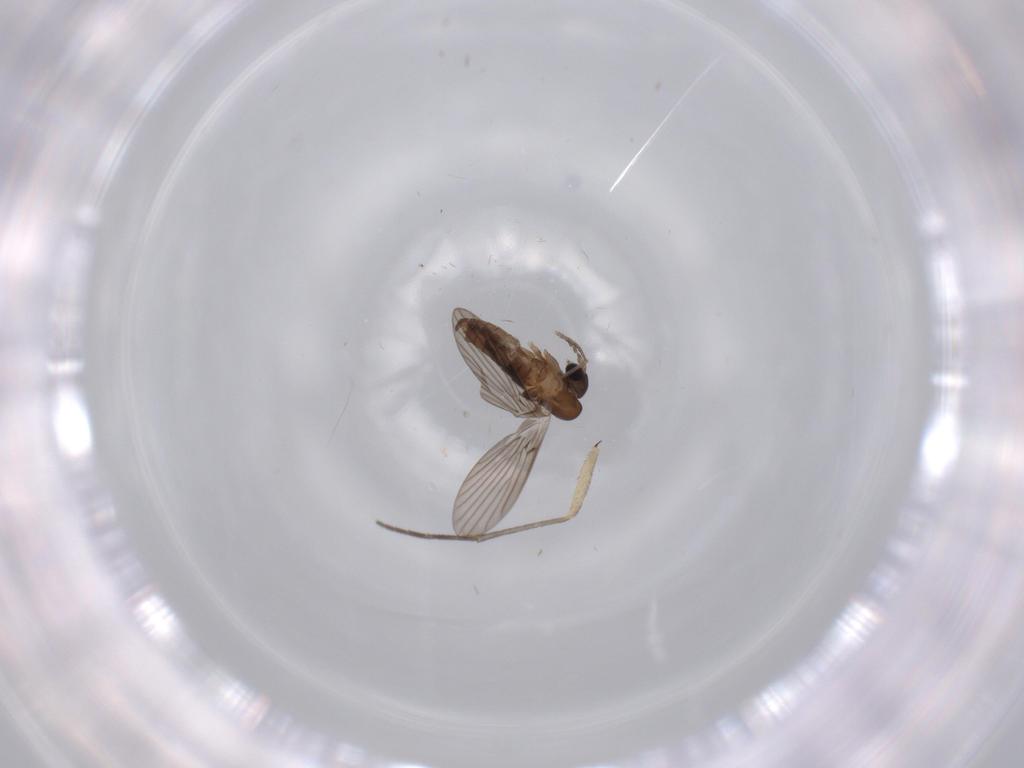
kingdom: Animalia
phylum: Arthropoda
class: Insecta
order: Diptera
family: Sciaridae
